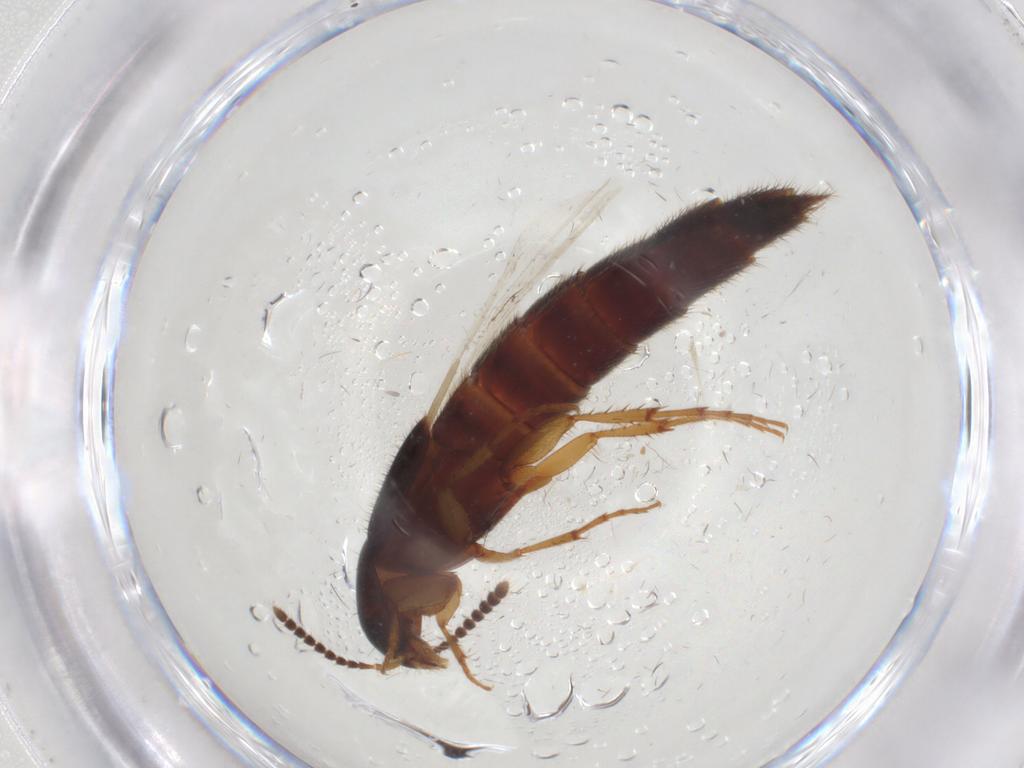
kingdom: Animalia
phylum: Arthropoda
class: Insecta
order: Coleoptera
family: Staphylinidae
